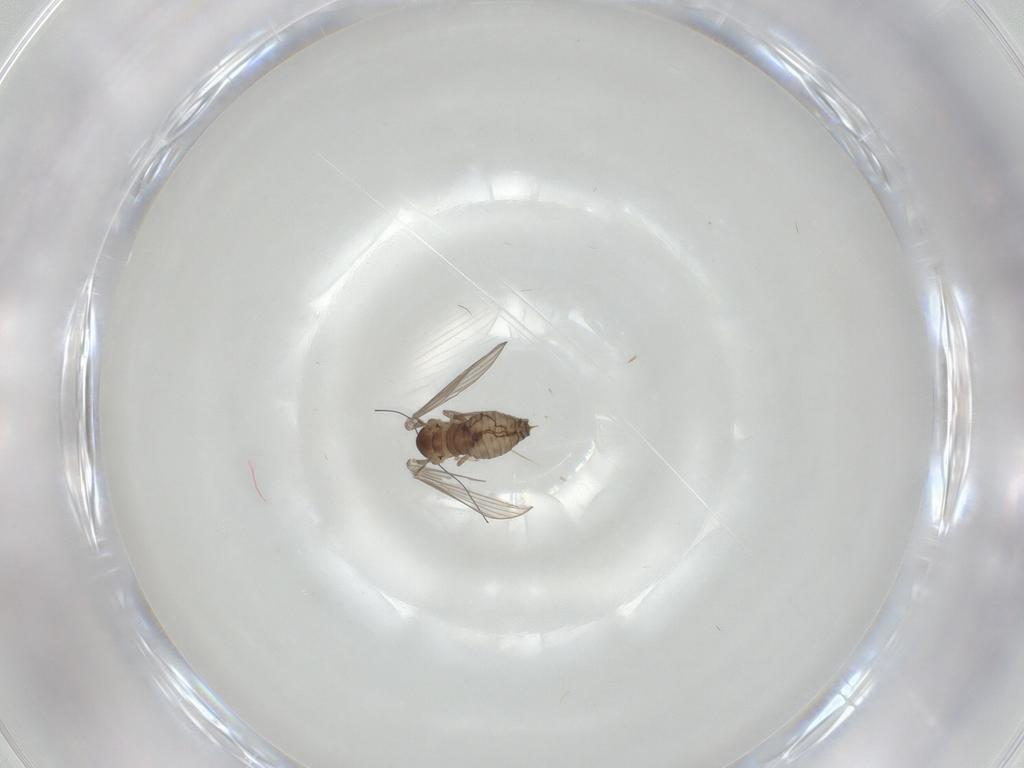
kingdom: Animalia
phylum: Arthropoda
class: Insecta
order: Diptera
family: Psychodidae
